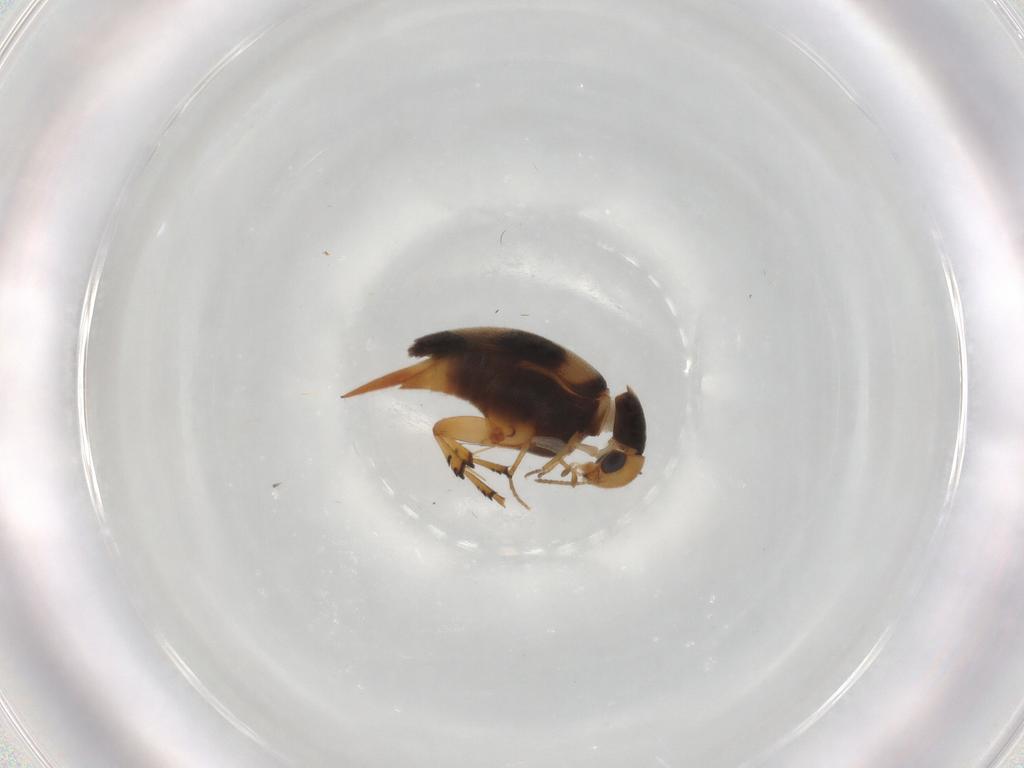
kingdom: Animalia
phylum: Arthropoda
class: Insecta
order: Coleoptera
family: Mordellidae
